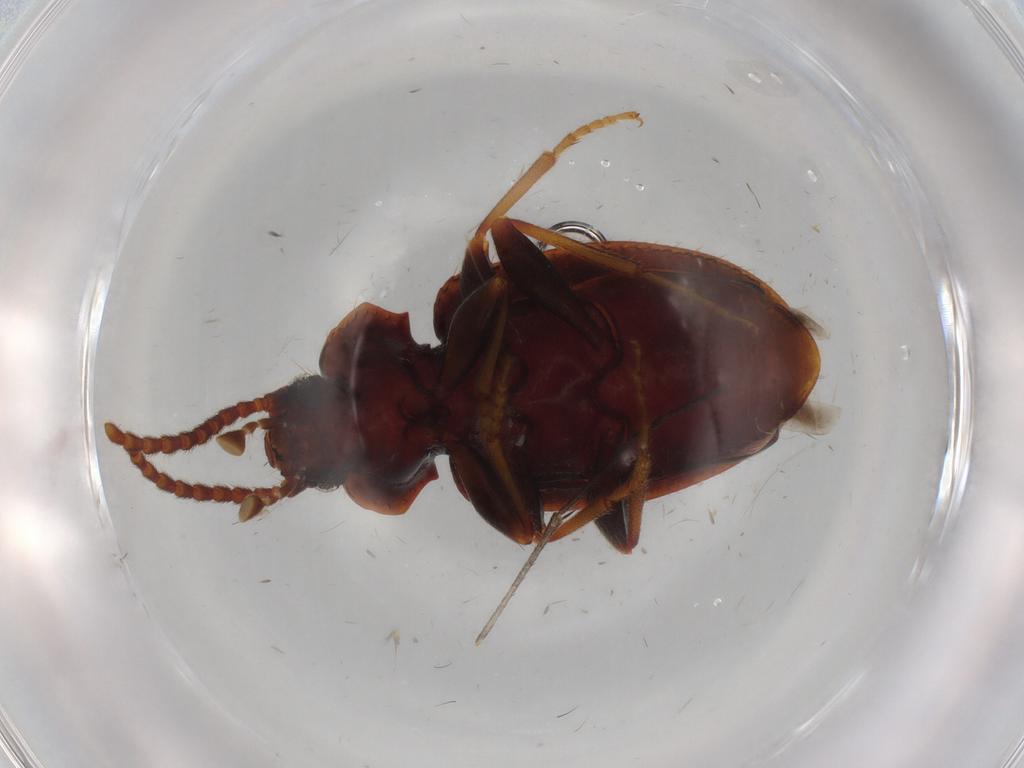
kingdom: Animalia
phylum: Arthropoda
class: Insecta
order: Coleoptera
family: Tenebrionidae
